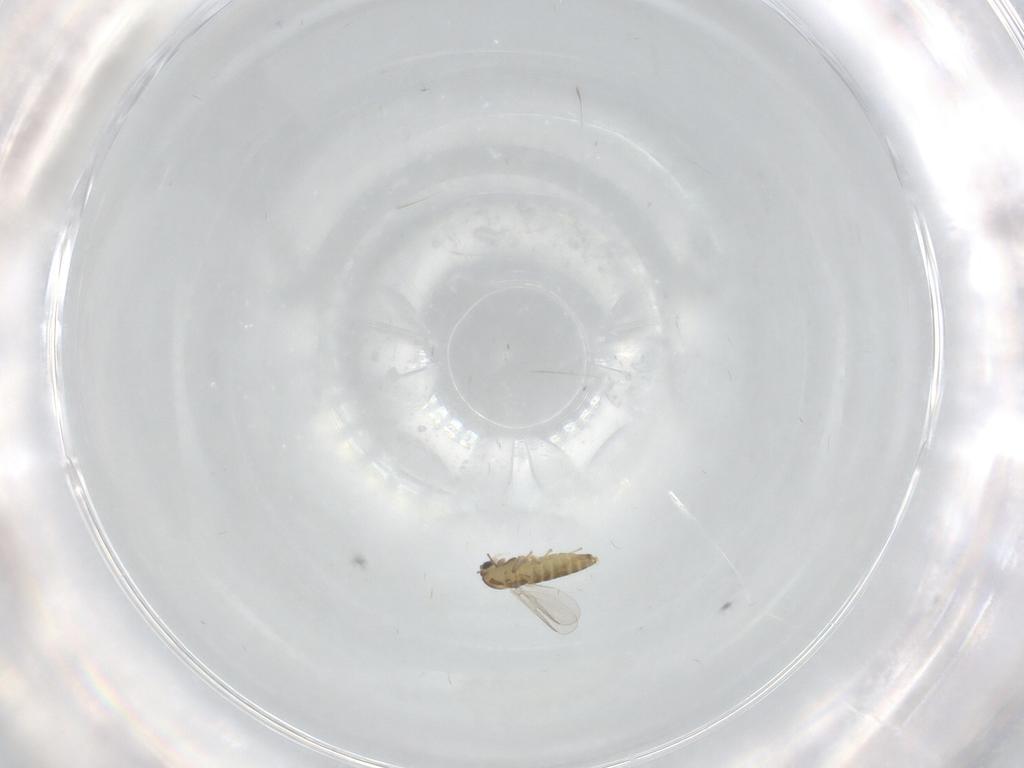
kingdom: Animalia
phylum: Arthropoda
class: Insecta
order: Diptera
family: Chironomidae
